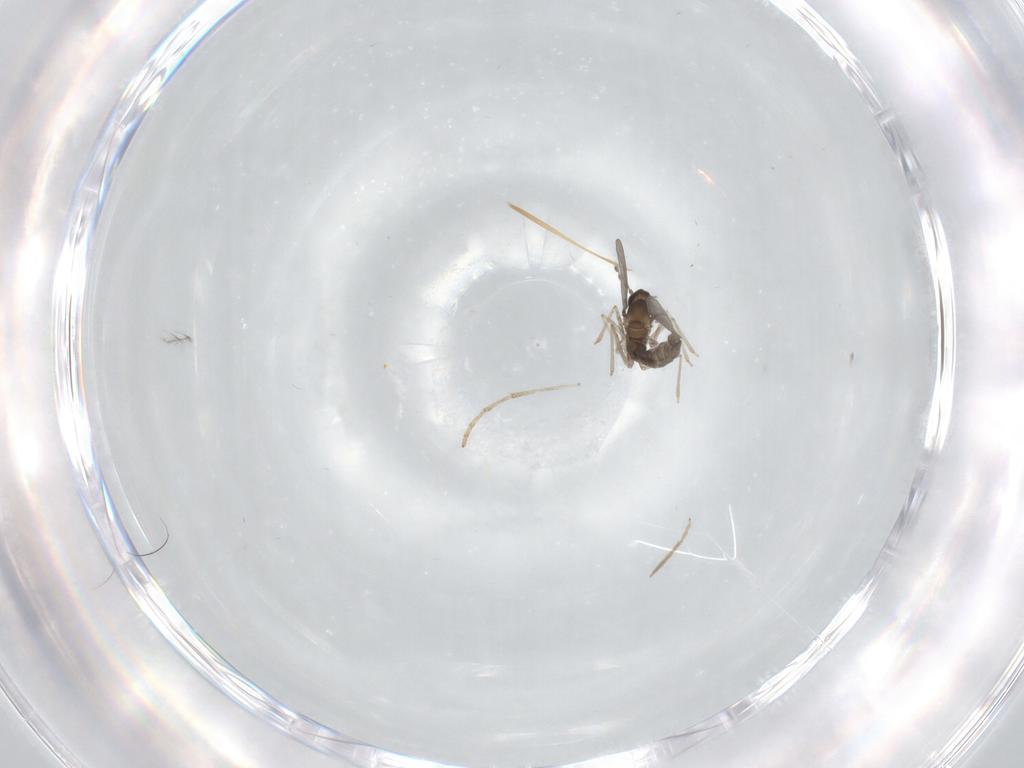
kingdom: Animalia
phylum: Arthropoda
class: Insecta
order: Diptera
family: Cecidomyiidae
